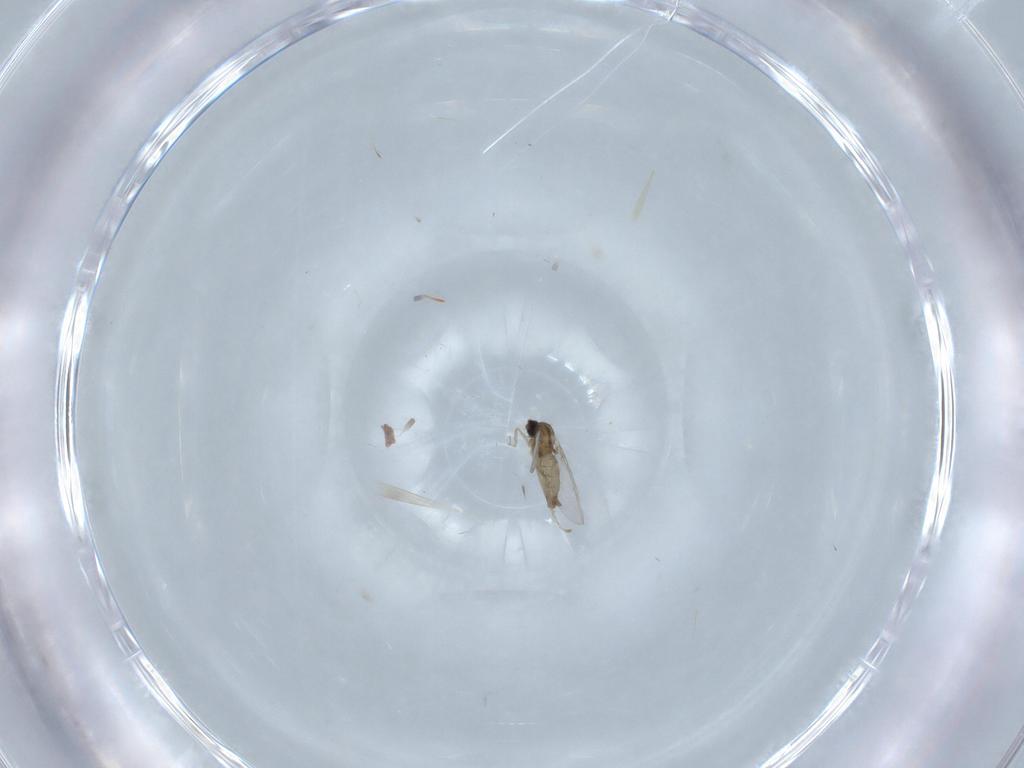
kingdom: Animalia
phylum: Arthropoda
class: Insecta
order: Diptera
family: Cecidomyiidae
